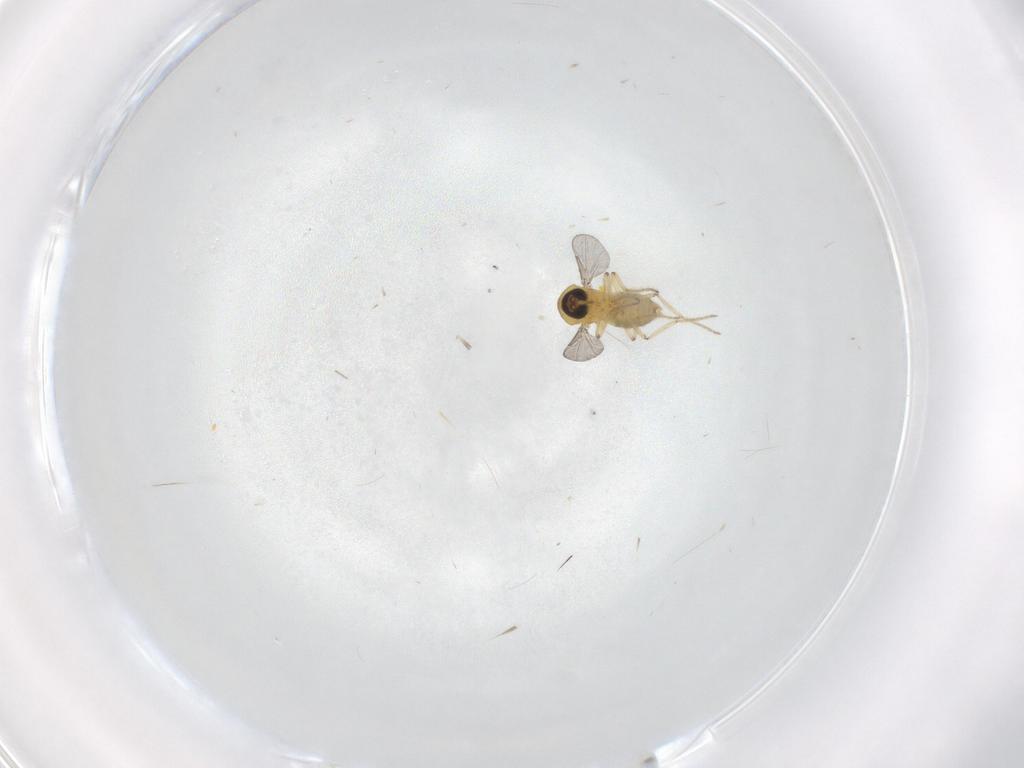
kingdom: Animalia
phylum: Arthropoda
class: Insecta
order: Diptera
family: Ceratopogonidae
